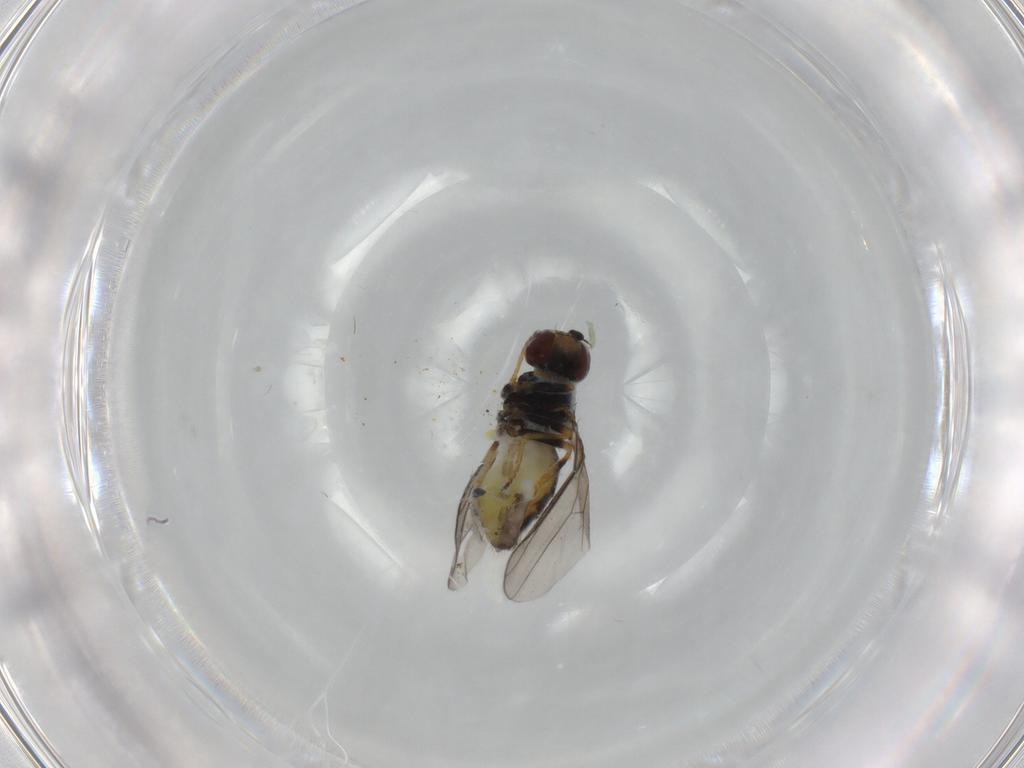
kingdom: Animalia
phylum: Arthropoda
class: Insecta
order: Diptera
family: Chloropidae
